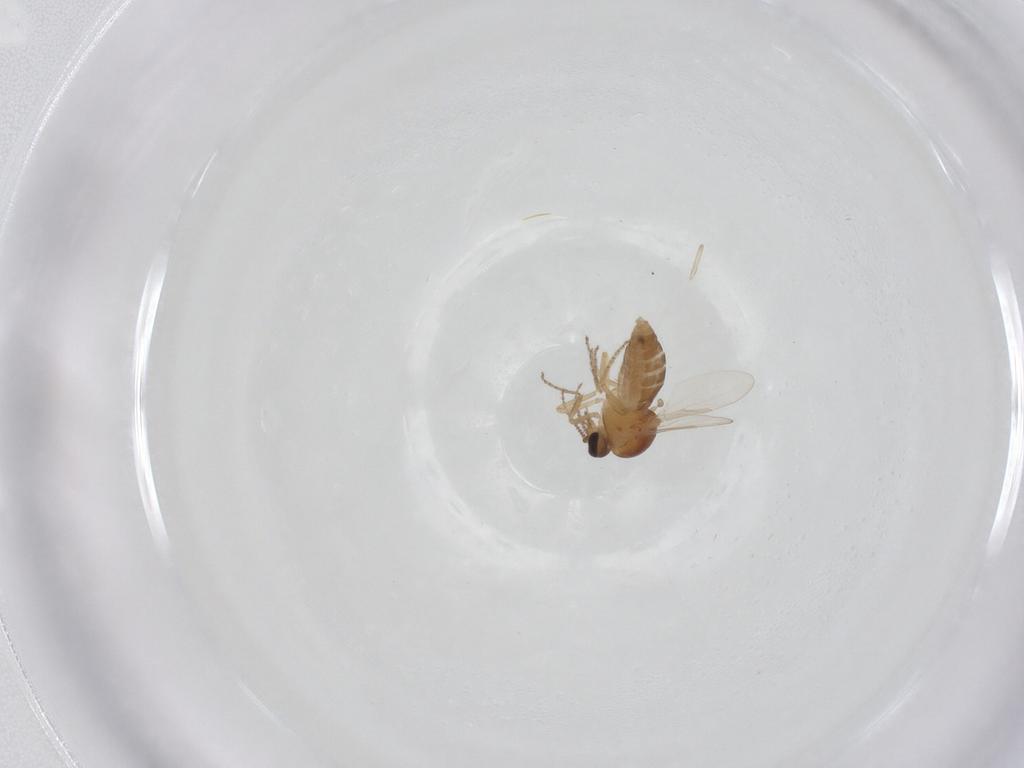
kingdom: Animalia
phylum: Arthropoda
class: Insecta
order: Diptera
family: Ceratopogonidae
